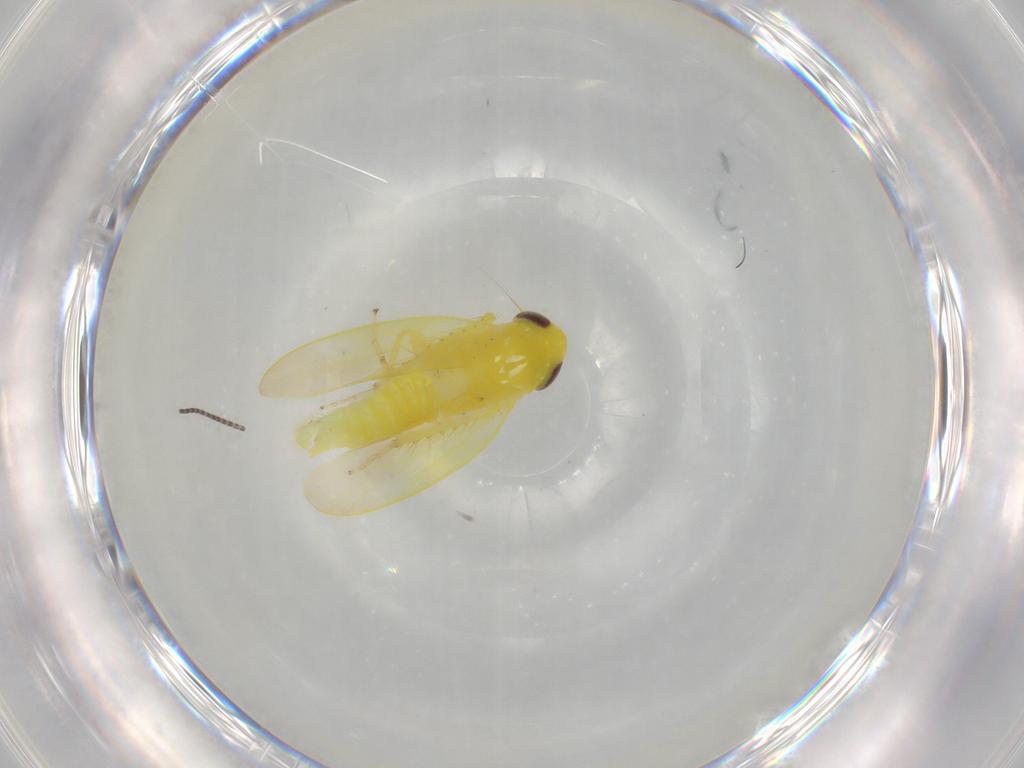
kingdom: Animalia
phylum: Arthropoda
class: Insecta
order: Hemiptera
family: Cicadellidae
